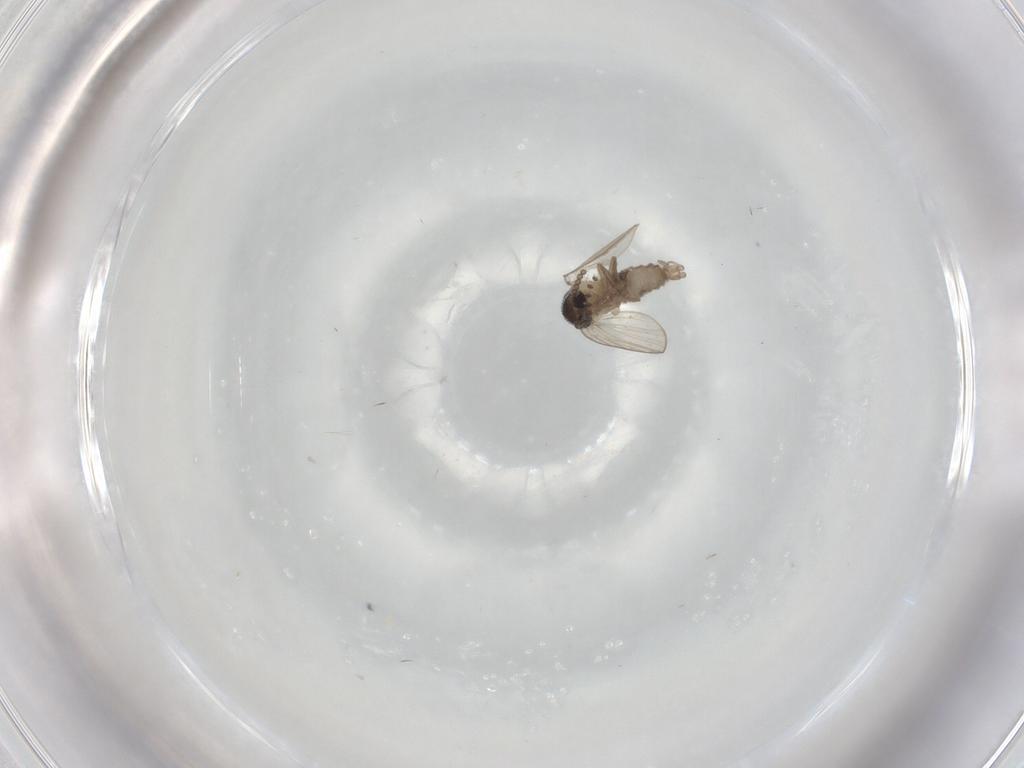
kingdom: Animalia
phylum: Arthropoda
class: Insecta
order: Diptera
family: Psychodidae
